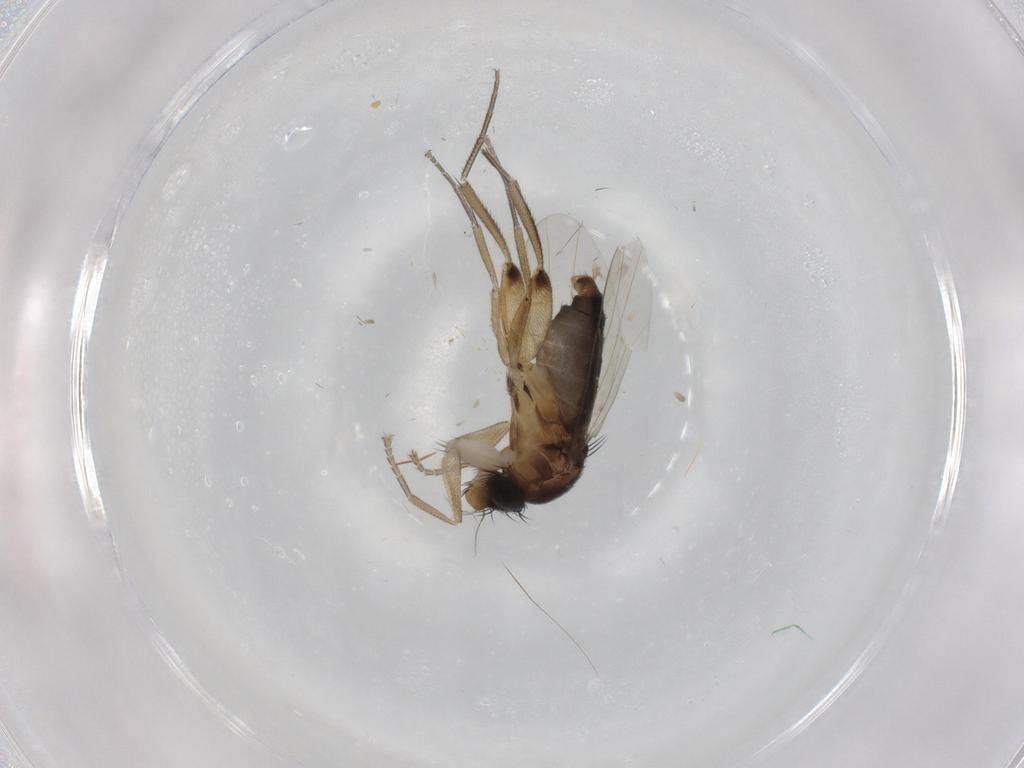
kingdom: Animalia
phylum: Arthropoda
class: Insecta
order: Diptera
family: Phoridae
